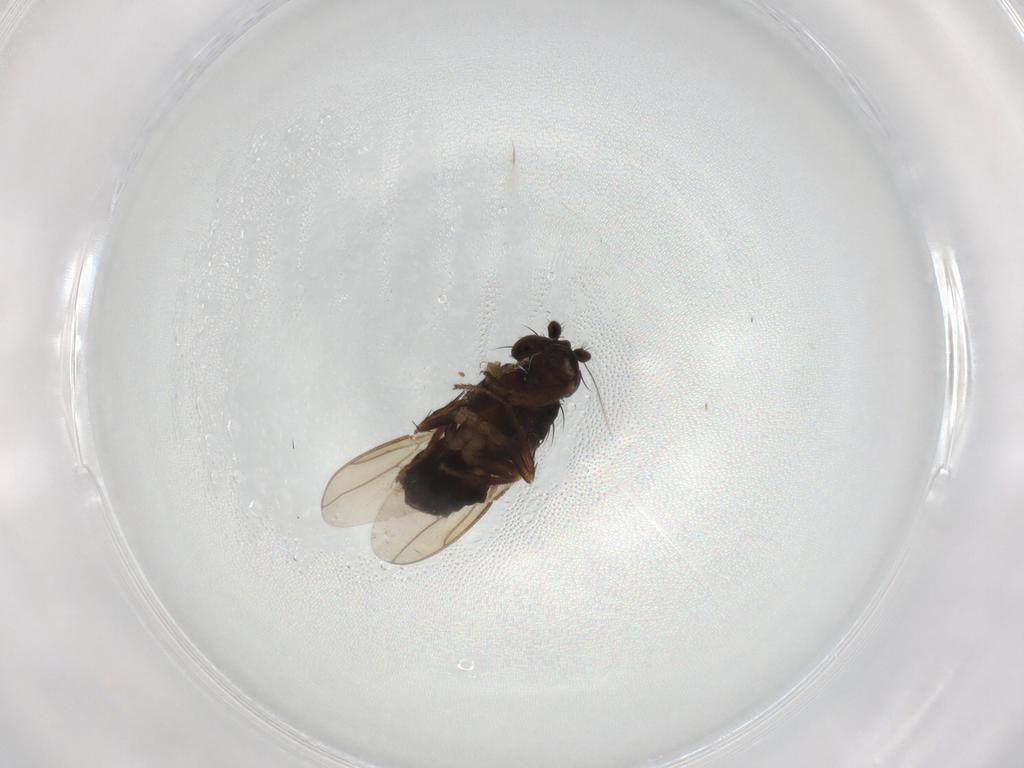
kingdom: Animalia
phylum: Arthropoda
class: Insecta
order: Diptera
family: Sphaeroceridae
